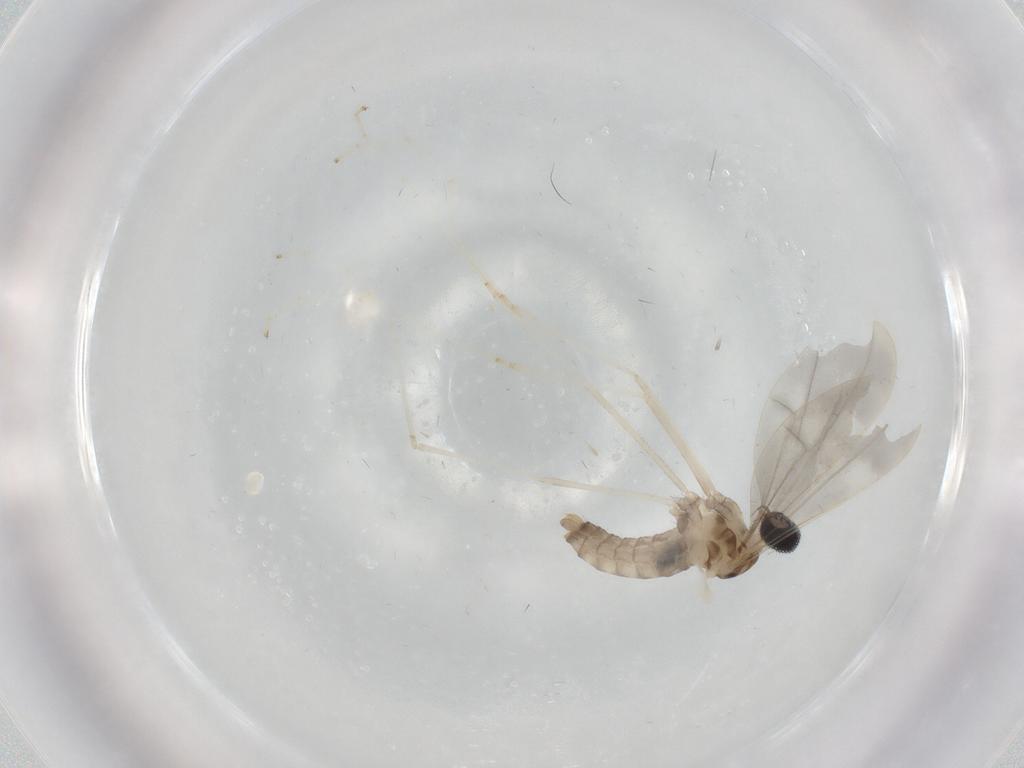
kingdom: Animalia
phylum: Arthropoda
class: Insecta
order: Diptera
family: Cecidomyiidae
